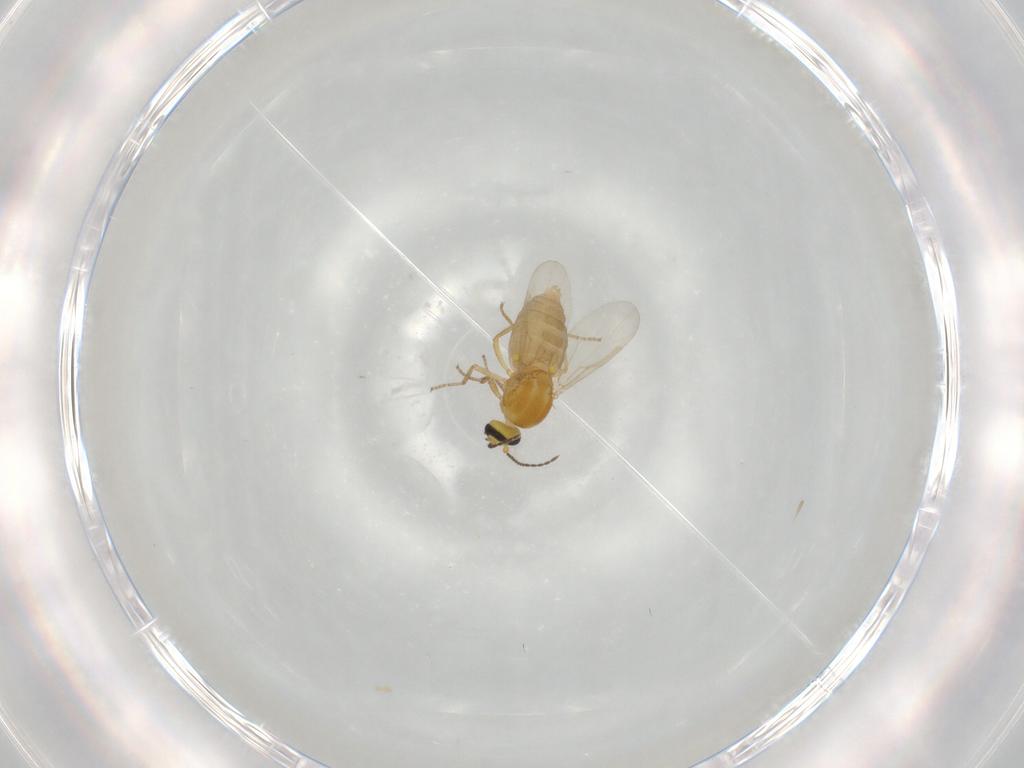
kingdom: Animalia
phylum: Arthropoda
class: Insecta
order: Diptera
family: Ceratopogonidae
